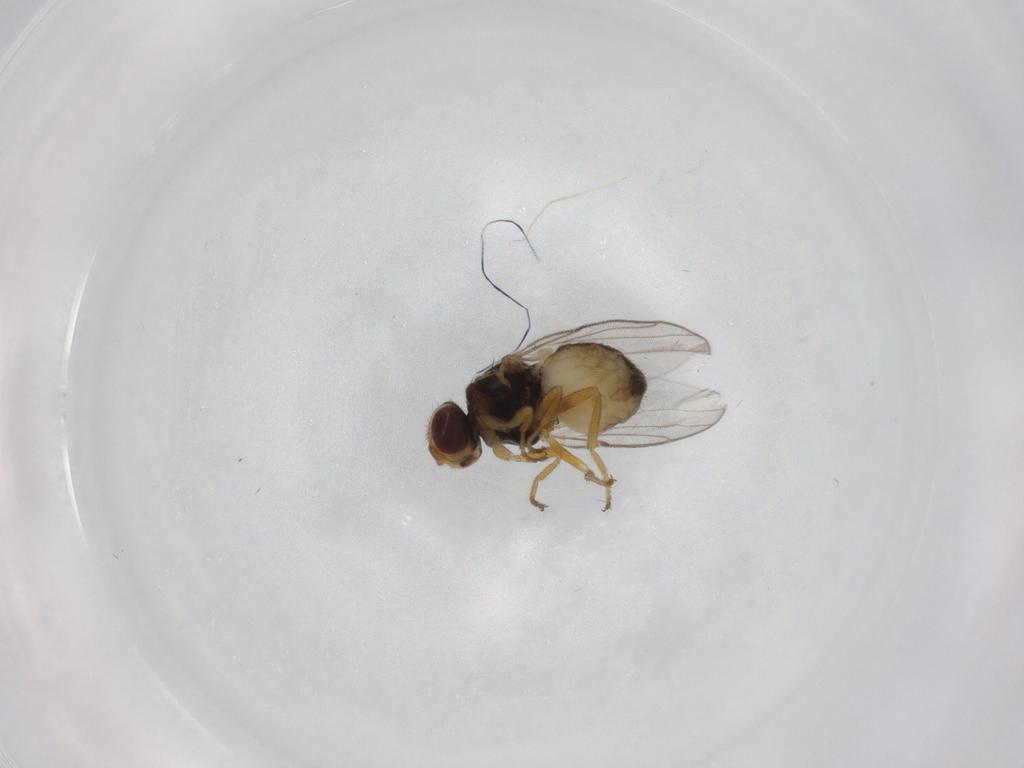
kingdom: Animalia
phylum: Arthropoda
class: Insecta
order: Diptera
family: Chloropidae
